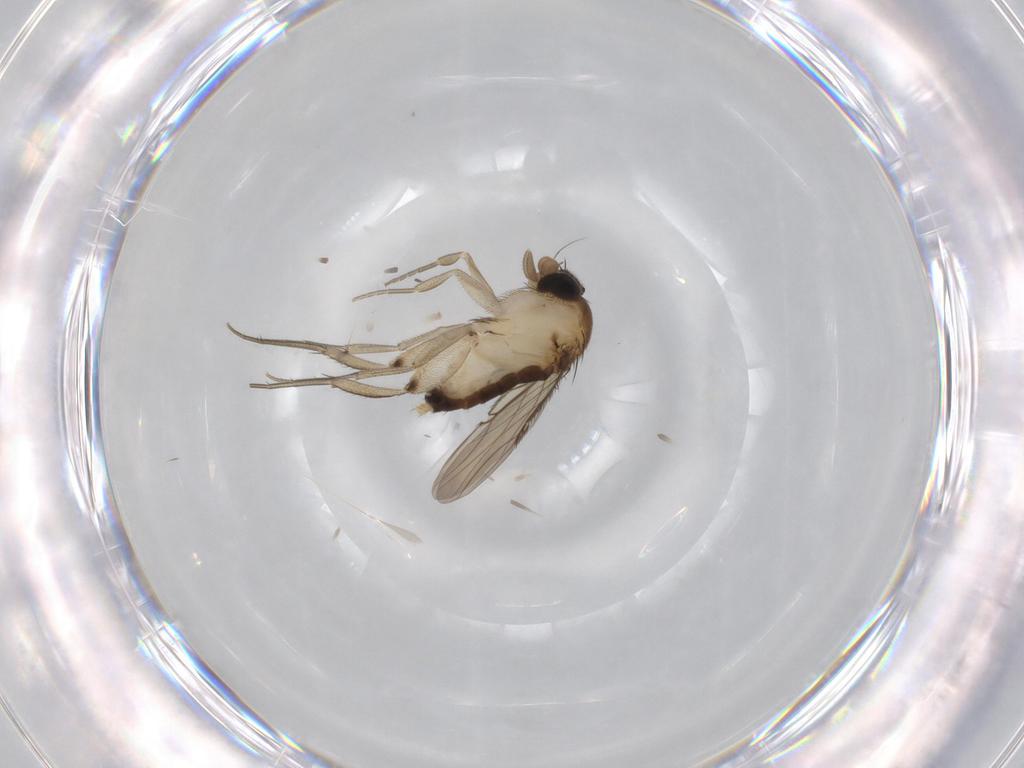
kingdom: Animalia
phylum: Arthropoda
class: Insecta
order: Diptera
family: Phoridae
